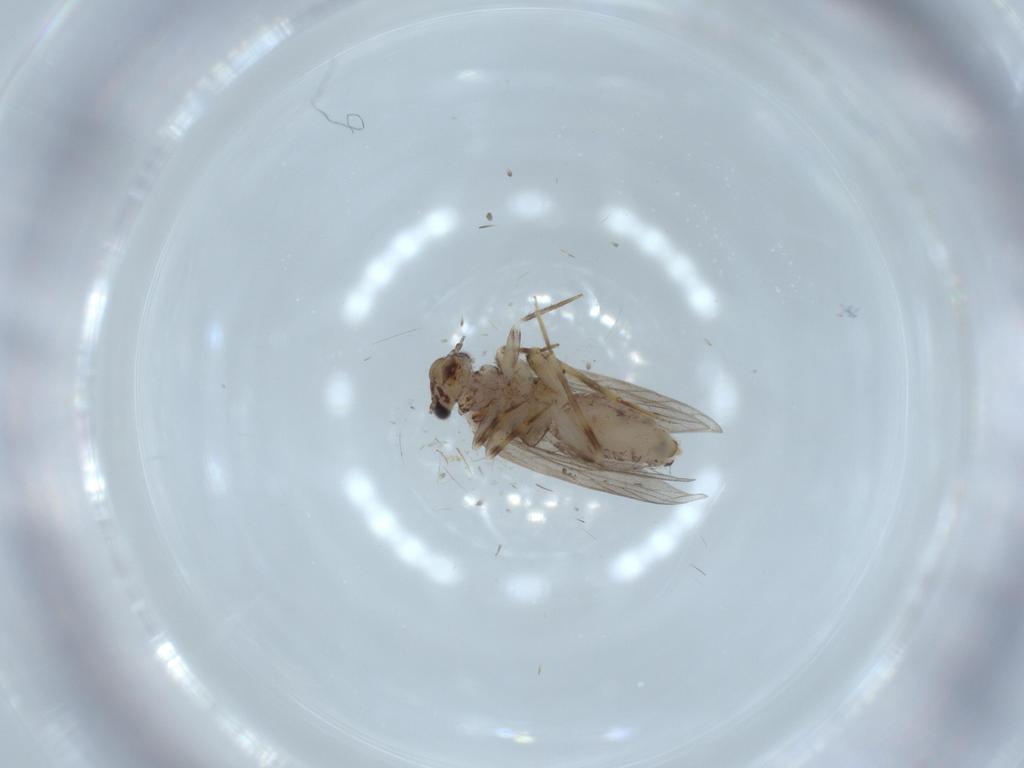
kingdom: Animalia
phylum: Arthropoda
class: Insecta
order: Psocodea
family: Lepidopsocidae
